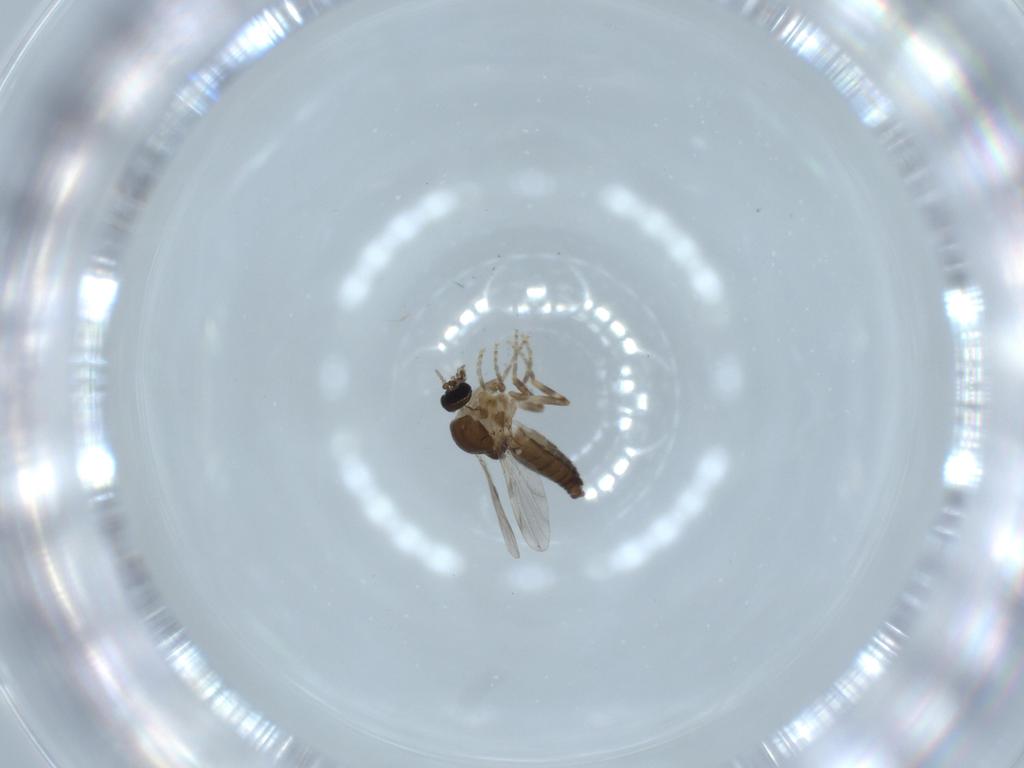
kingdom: Animalia
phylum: Arthropoda
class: Insecta
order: Diptera
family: Ceratopogonidae
